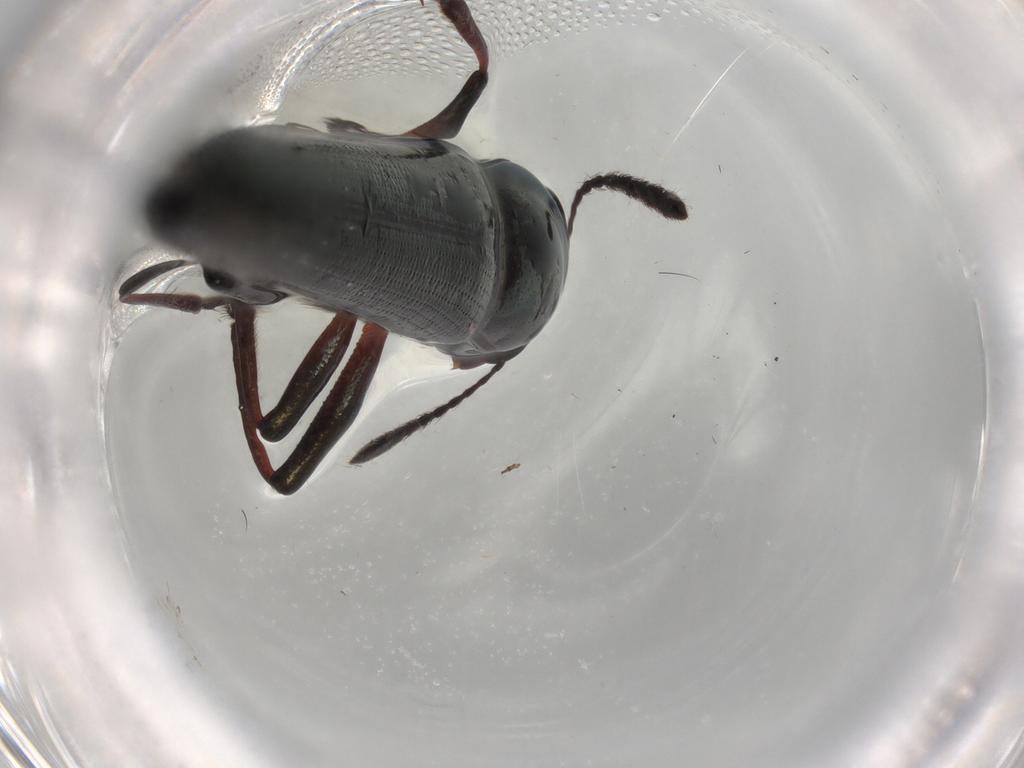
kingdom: Animalia
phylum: Arthropoda
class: Insecta
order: Coleoptera
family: Erotylidae
